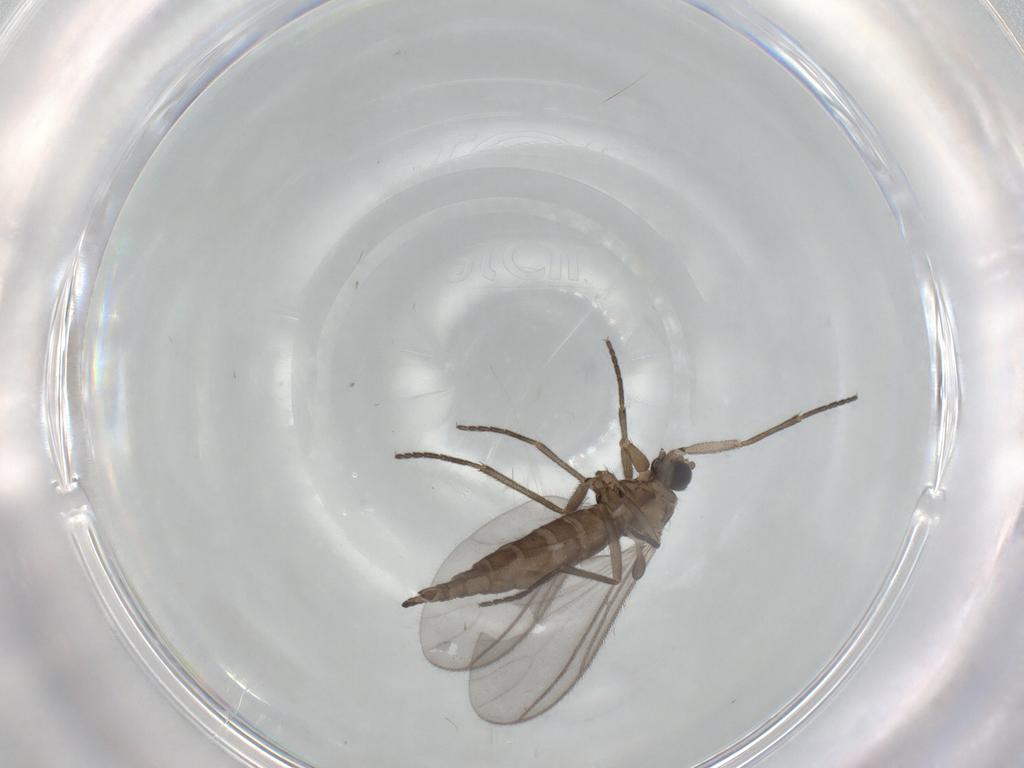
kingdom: Animalia
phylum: Arthropoda
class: Insecta
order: Diptera
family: Sciaridae
